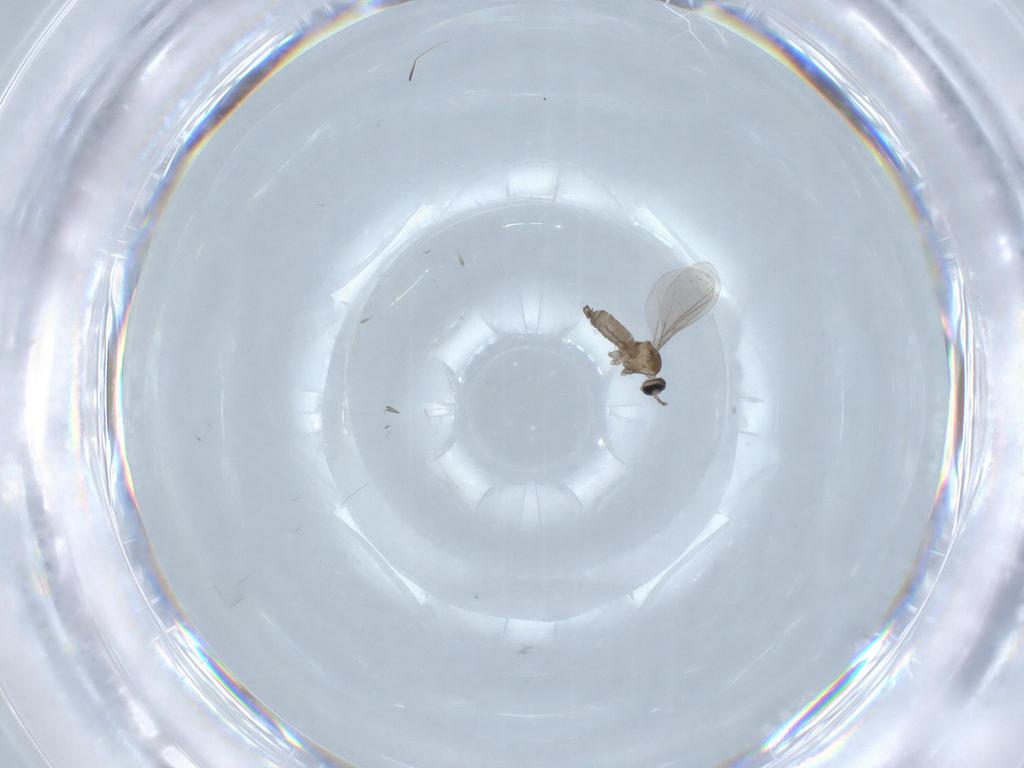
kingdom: Animalia
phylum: Arthropoda
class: Insecta
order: Diptera
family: Cecidomyiidae
